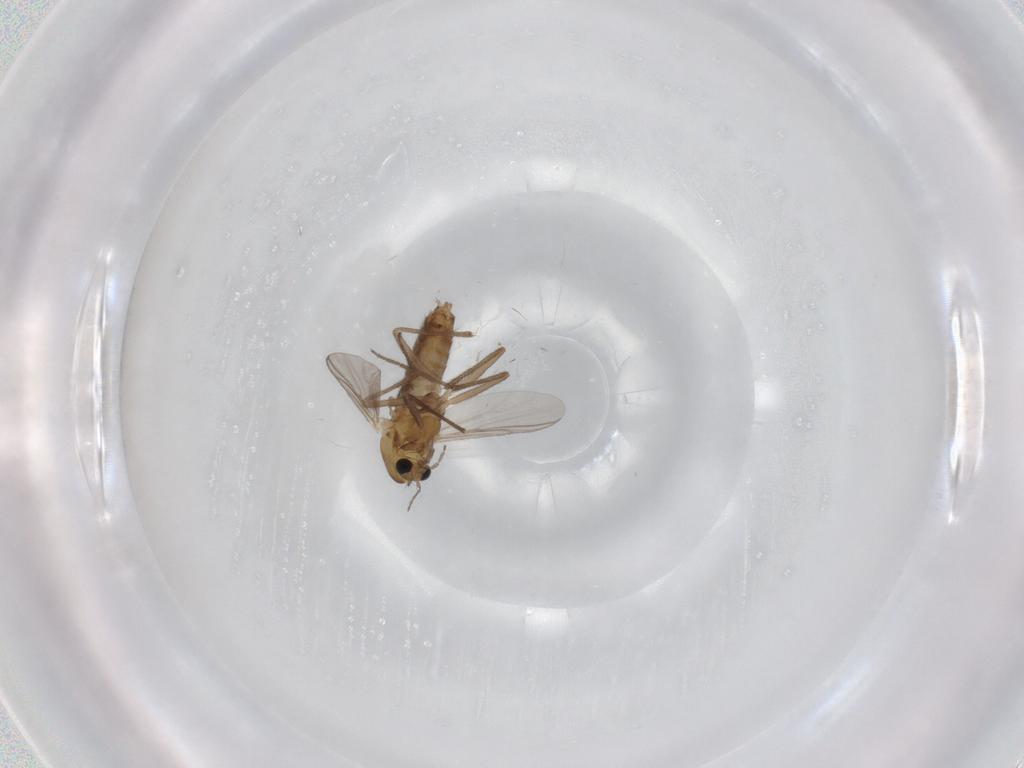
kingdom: Animalia
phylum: Arthropoda
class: Insecta
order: Diptera
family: Chironomidae
